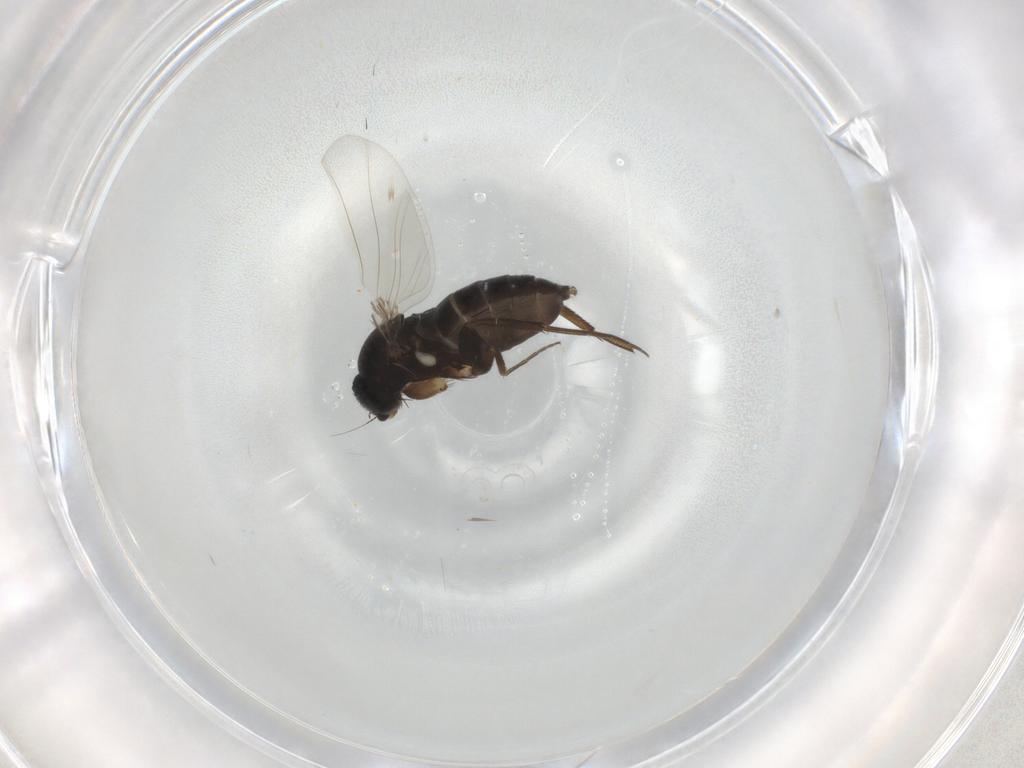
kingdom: Animalia
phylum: Arthropoda
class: Insecta
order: Diptera
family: Phoridae
